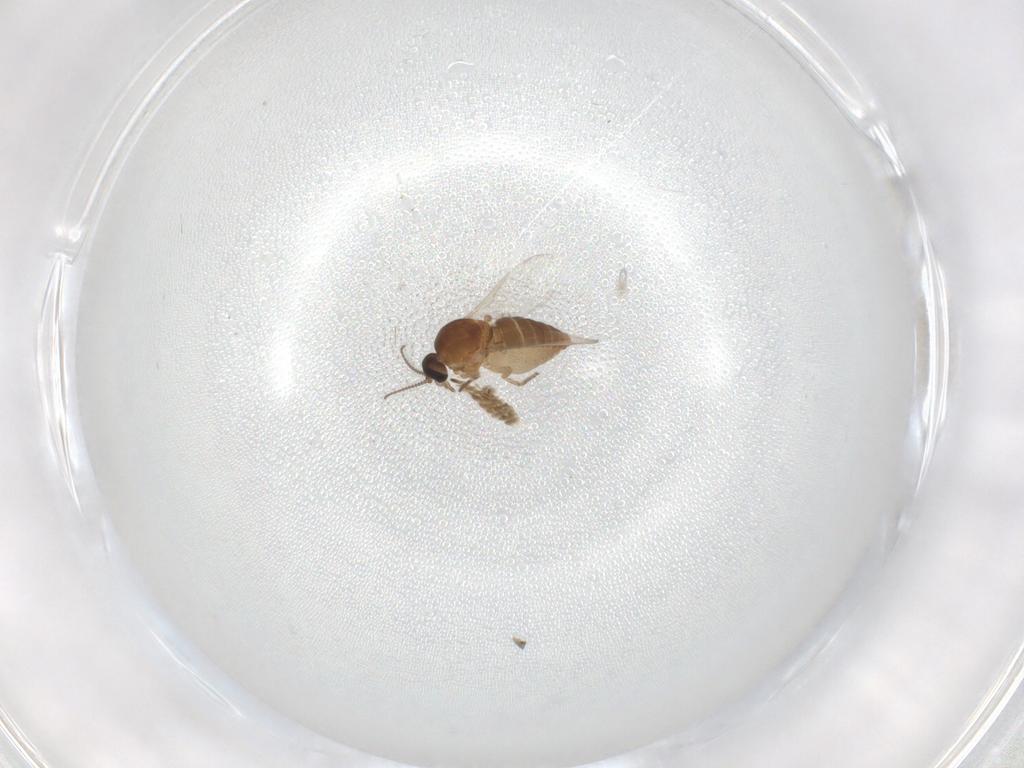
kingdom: Animalia
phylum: Arthropoda
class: Insecta
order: Diptera
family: Ceratopogonidae
